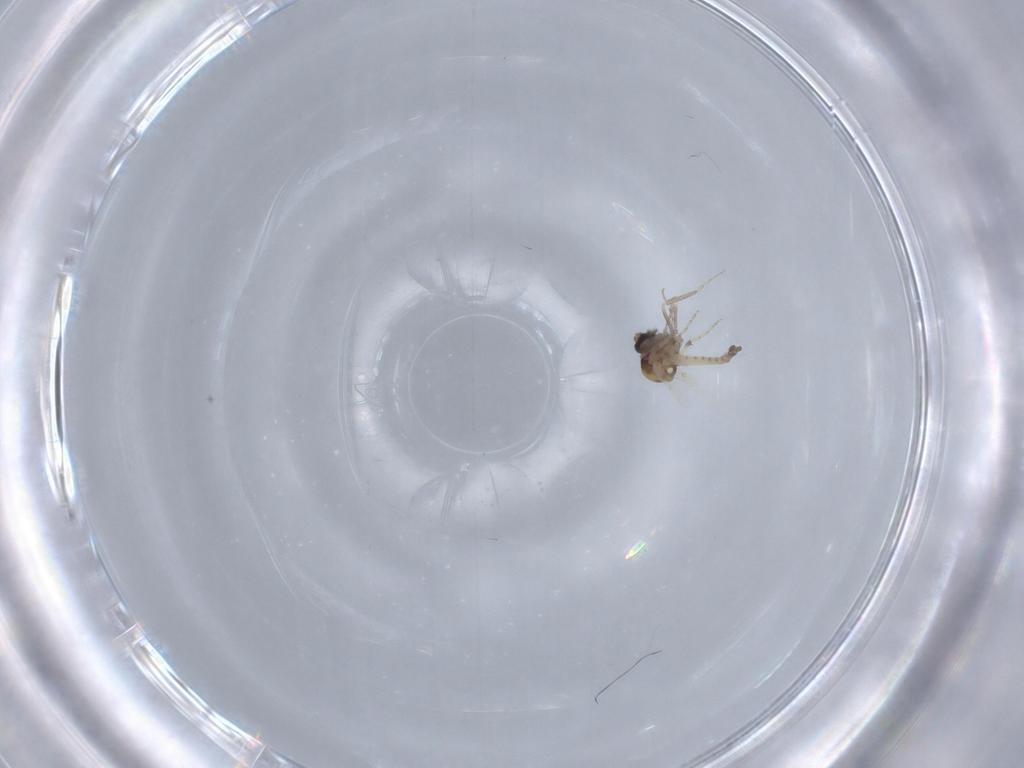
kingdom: Animalia
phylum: Arthropoda
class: Insecta
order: Diptera
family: Ceratopogonidae
